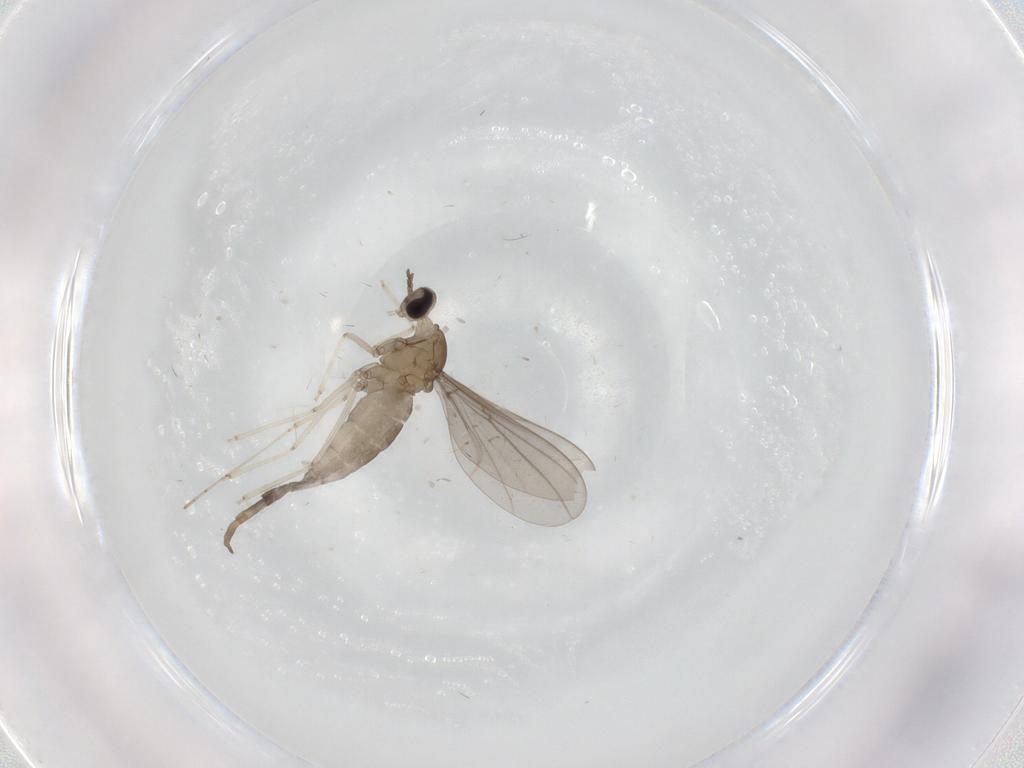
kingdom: Animalia
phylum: Arthropoda
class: Insecta
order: Diptera
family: Cecidomyiidae
